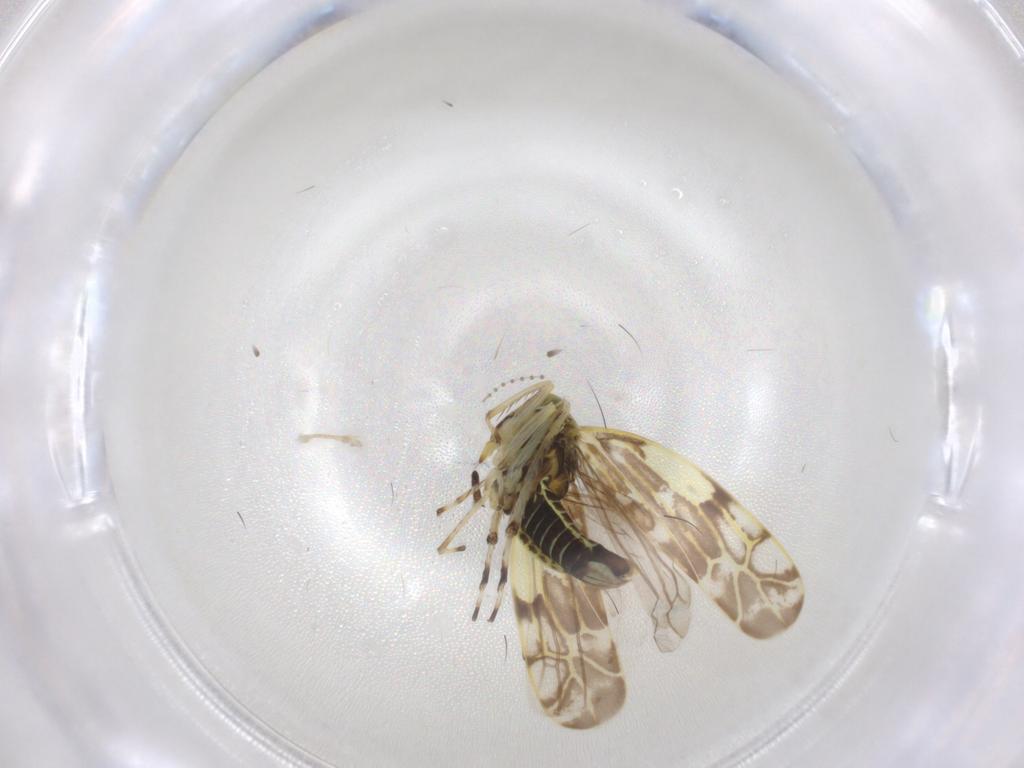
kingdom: Animalia
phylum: Arthropoda
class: Insecta
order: Hemiptera
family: Cicadellidae
